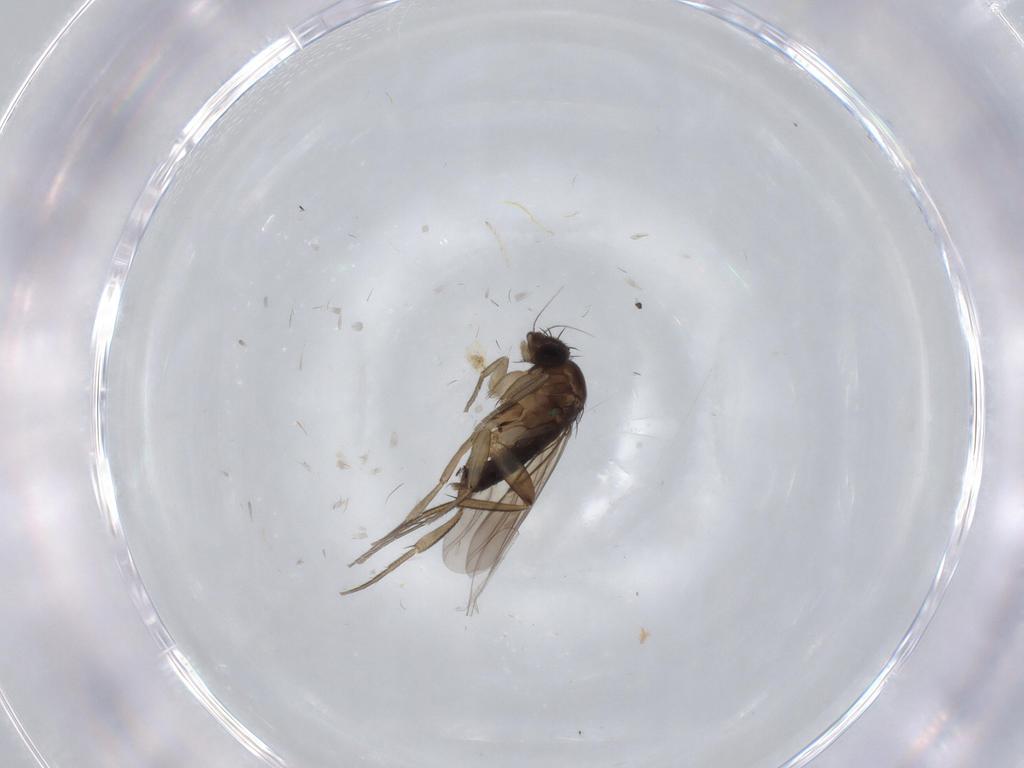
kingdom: Animalia
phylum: Arthropoda
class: Insecta
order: Diptera
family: Phoridae
